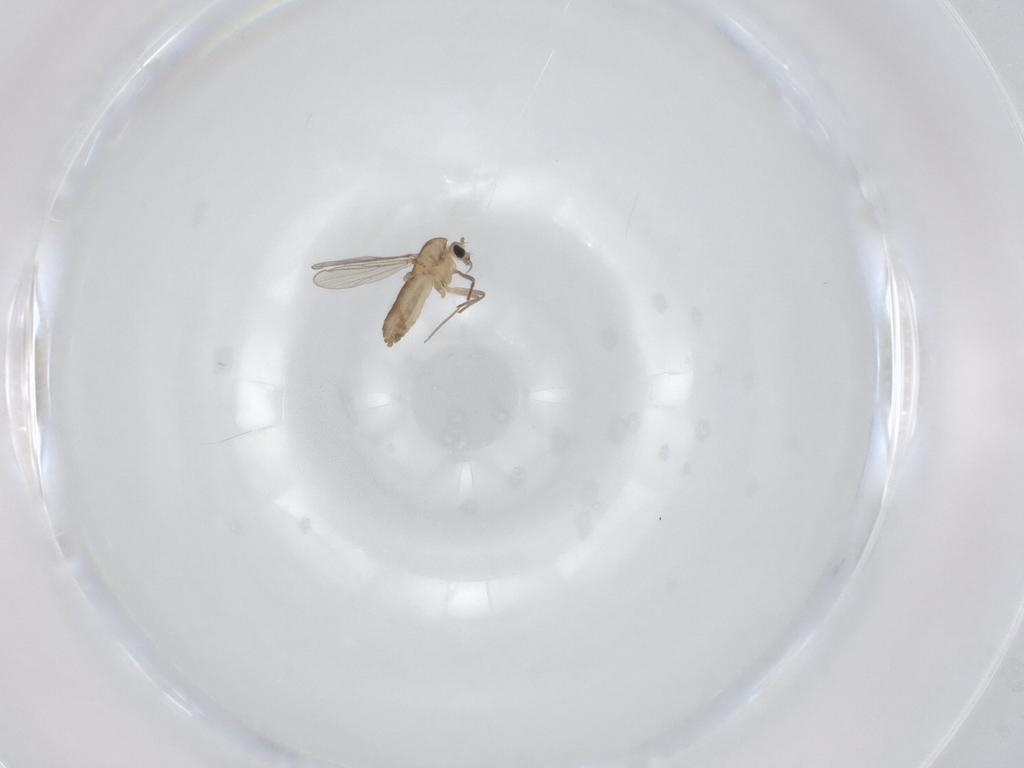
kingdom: Animalia
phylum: Arthropoda
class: Insecta
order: Diptera
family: Chironomidae
